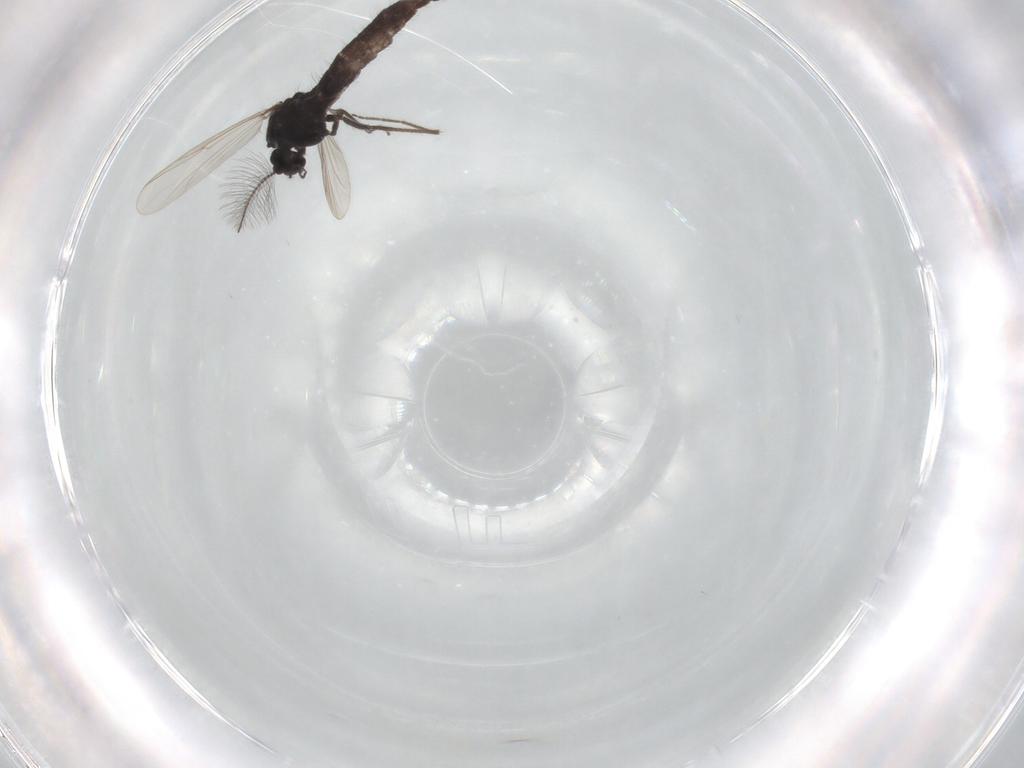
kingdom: Animalia
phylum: Arthropoda
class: Insecta
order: Diptera
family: Chironomidae
